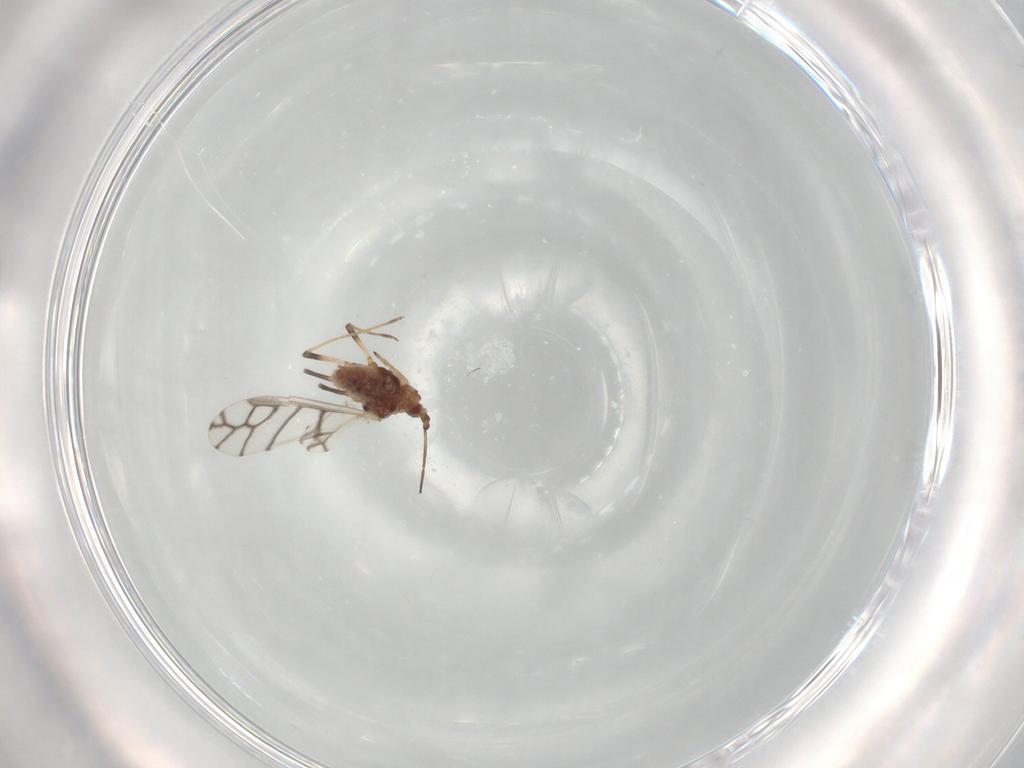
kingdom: Animalia
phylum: Arthropoda
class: Insecta
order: Hemiptera
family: Aphididae
